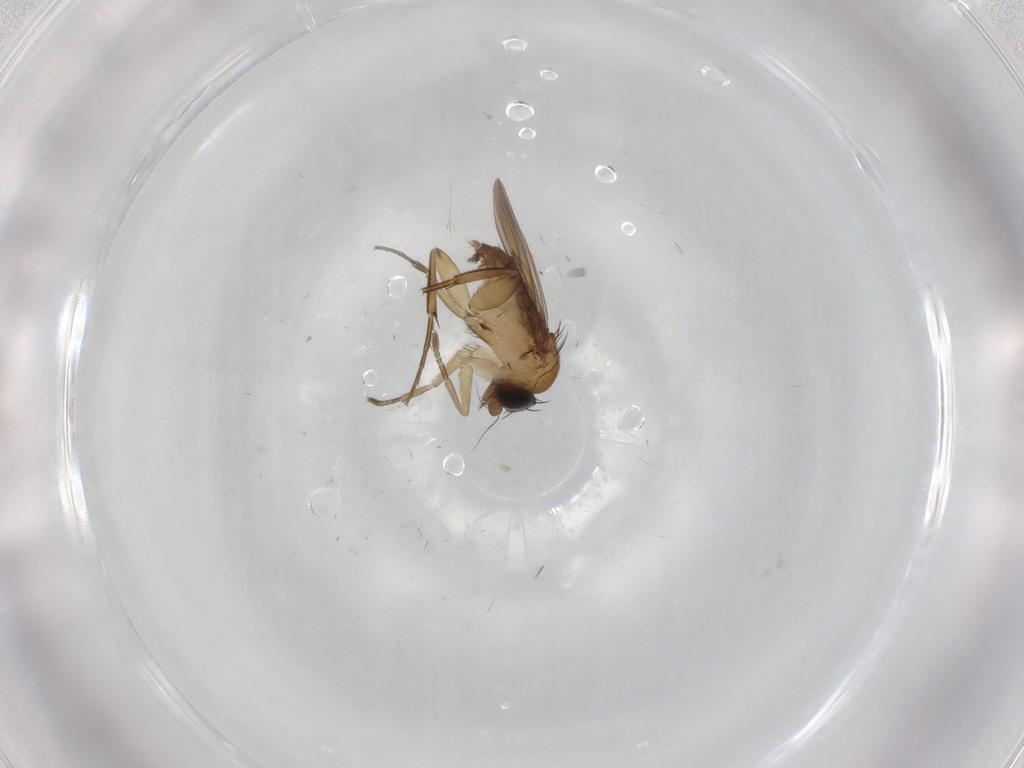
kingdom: Animalia
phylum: Arthropoda
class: Insecta
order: Diptera
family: Phoridae
